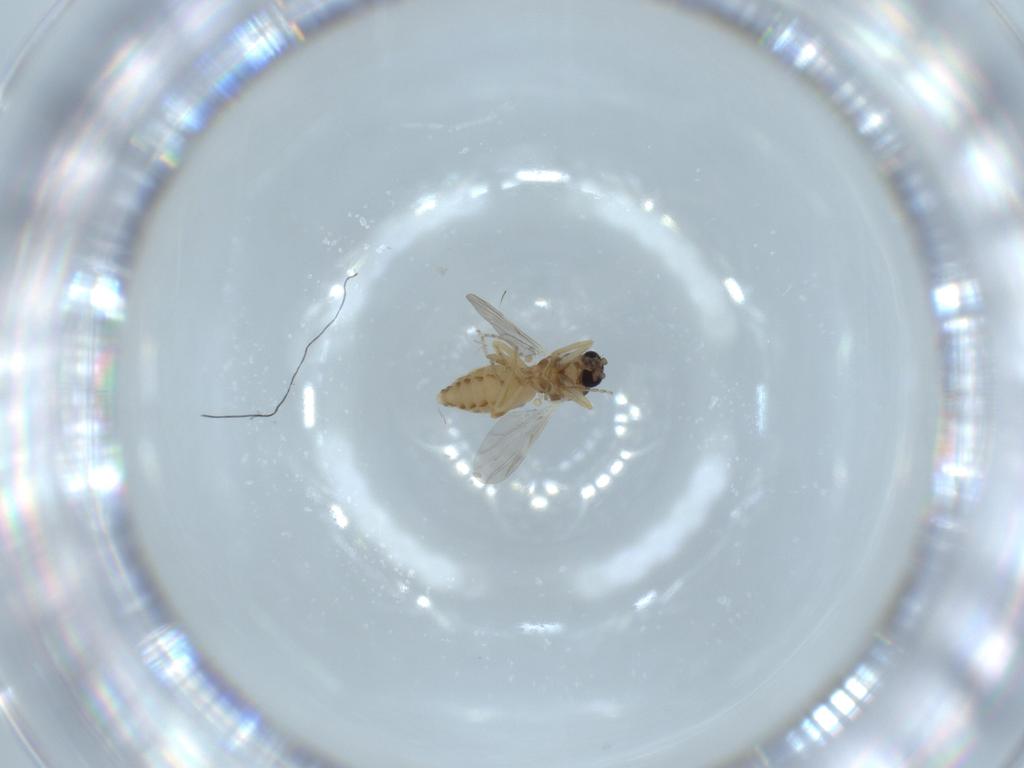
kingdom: Animalia
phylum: Arthropoda
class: Insecta
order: Diptera
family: Ceratopogonidae
